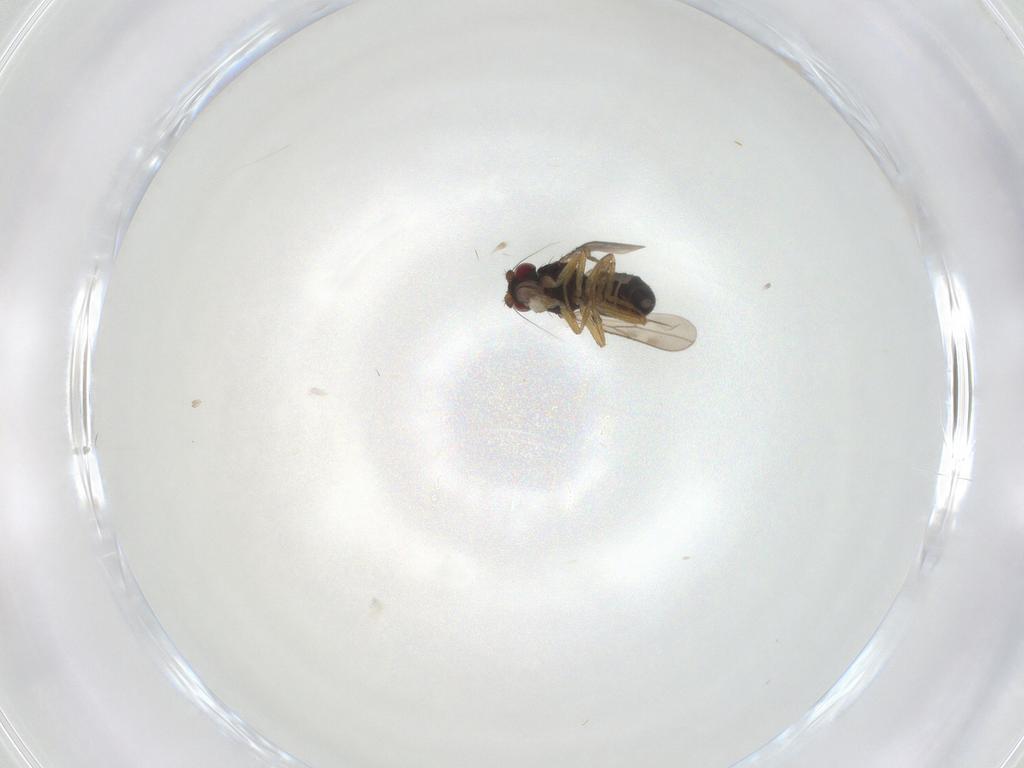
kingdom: Animalia
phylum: Arthropoda
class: Insecta
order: Diptera
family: Sphaeroceridae
